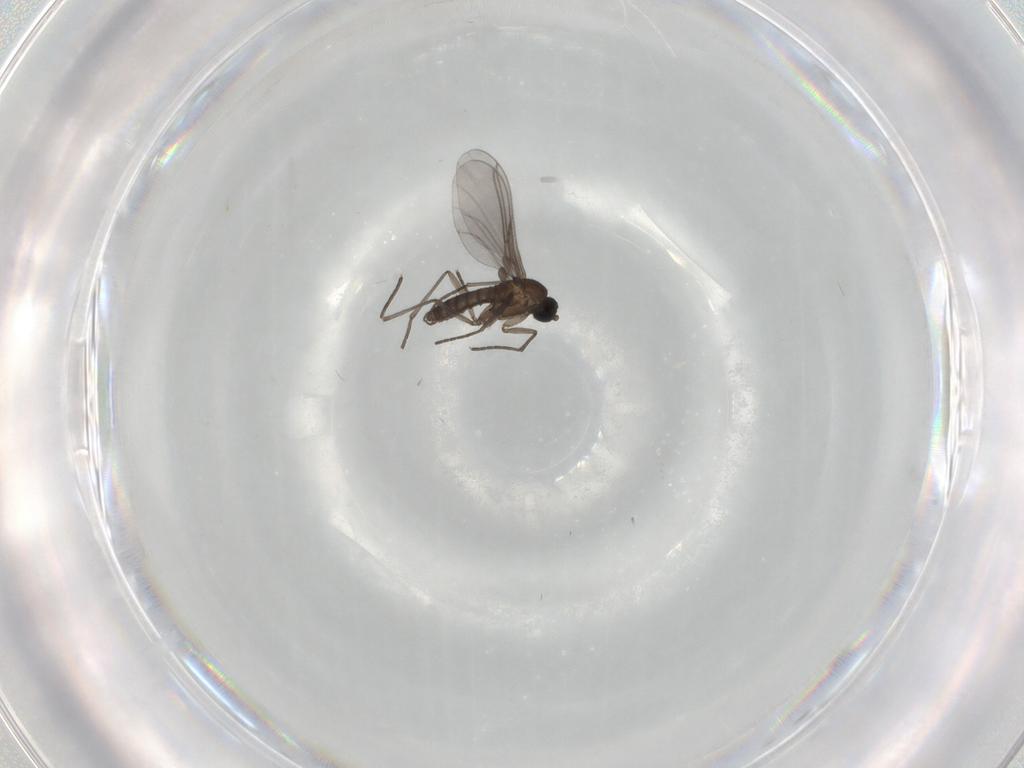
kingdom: Animalia
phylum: Arthropoda
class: Insecta
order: Diptera
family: Cecidomyiidae
